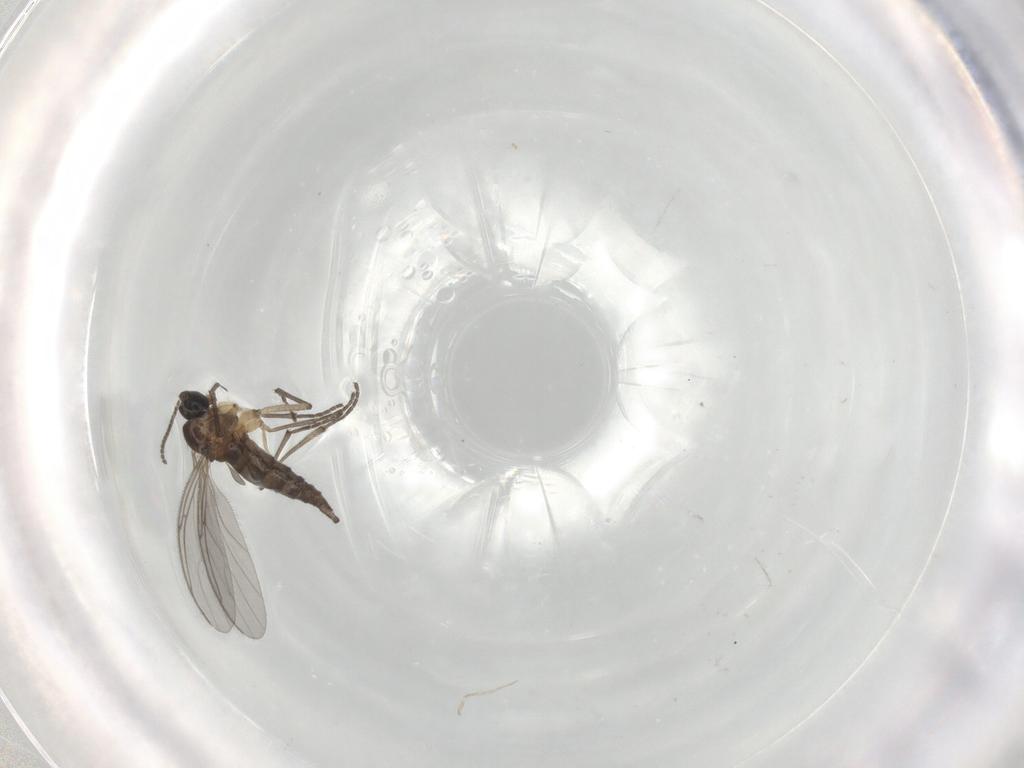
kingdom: Animalia
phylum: Arthropoda
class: Insecta
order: Diptera
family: Sciaridae
